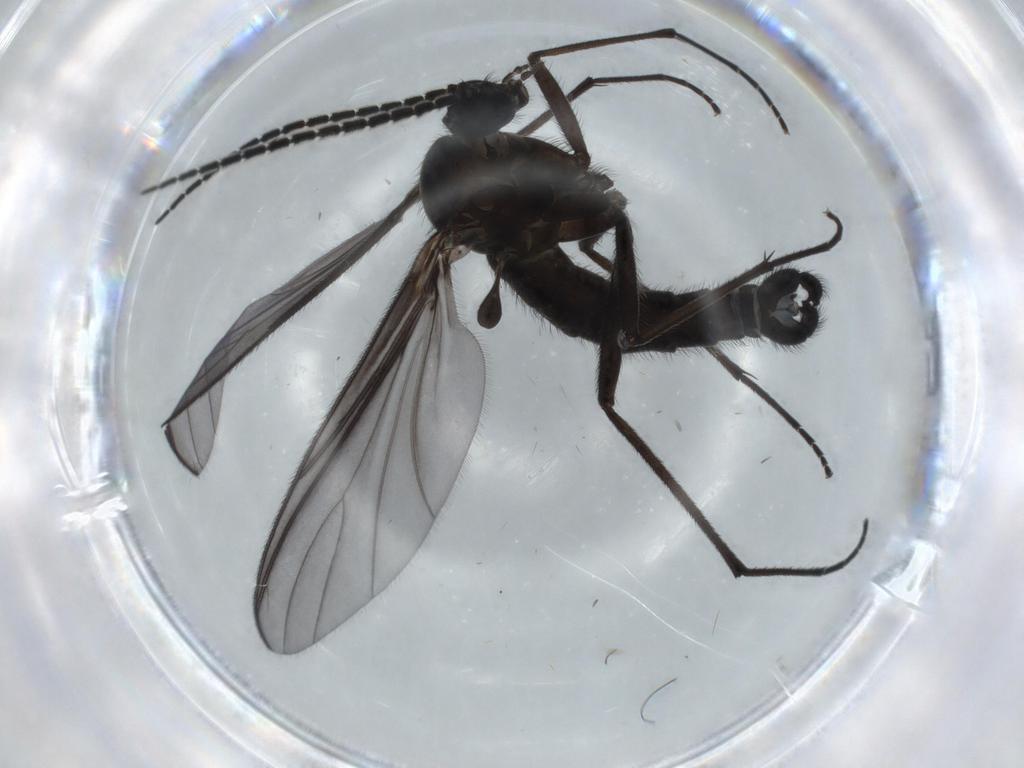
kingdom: Animalia
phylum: Arthropoda
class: Insecta
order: Diptera
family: Sciaridae
